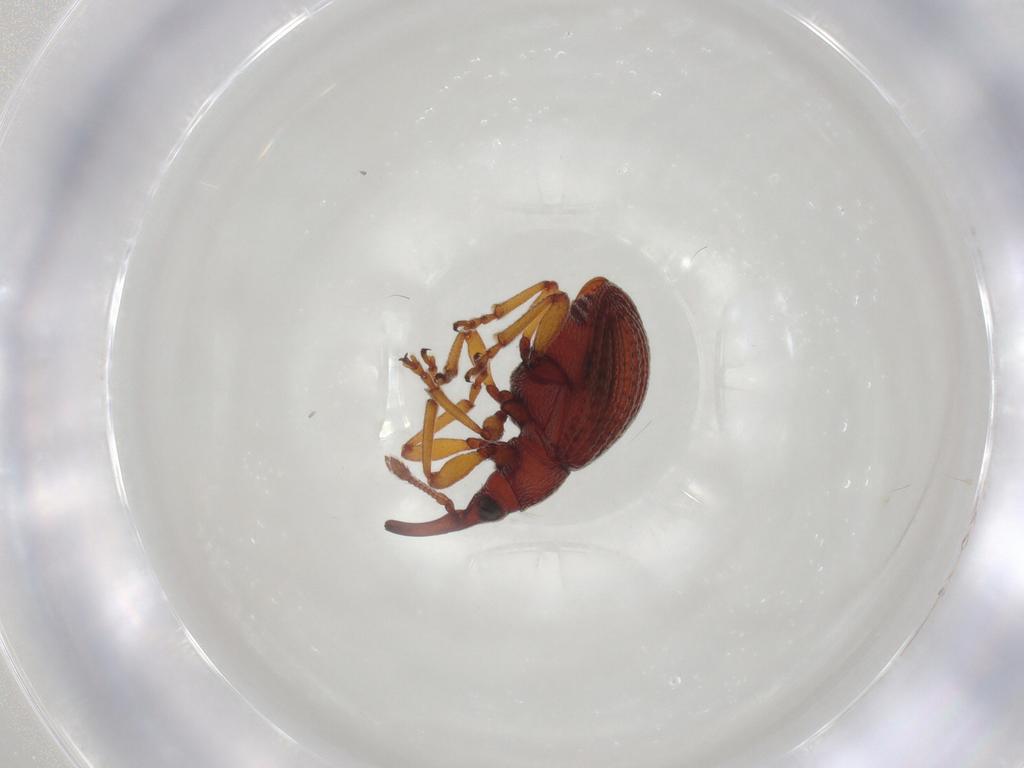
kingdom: Animalia
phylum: Arthropoda
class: Insecta
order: Coleoptera
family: Brentidae
